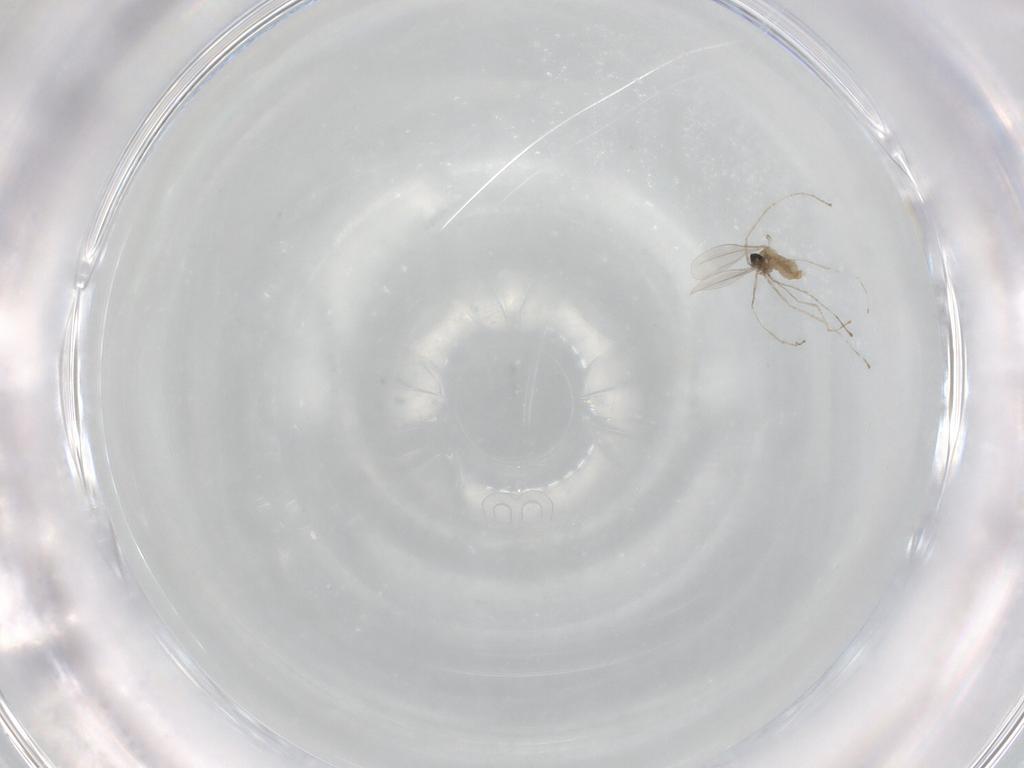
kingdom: Animalia
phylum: Arthropoda
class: Insecta
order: Diptera
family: Cecidomyiidae
